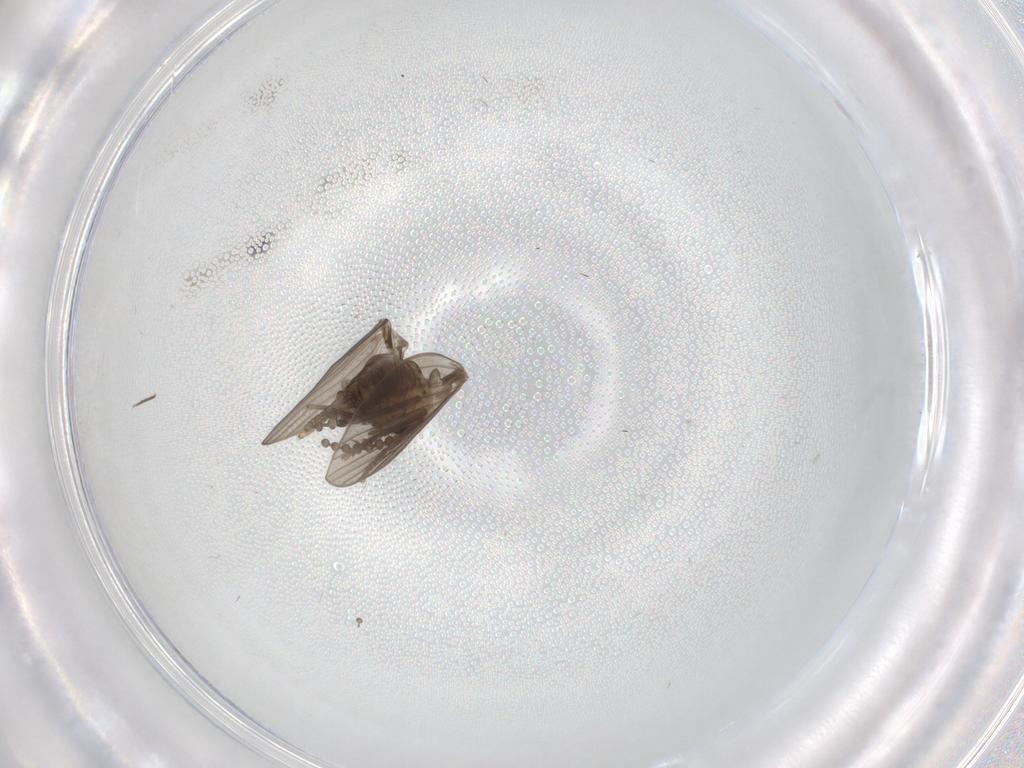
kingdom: Animalia
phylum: Arthropoda
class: Insecta
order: Diptera
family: Psychodidae
